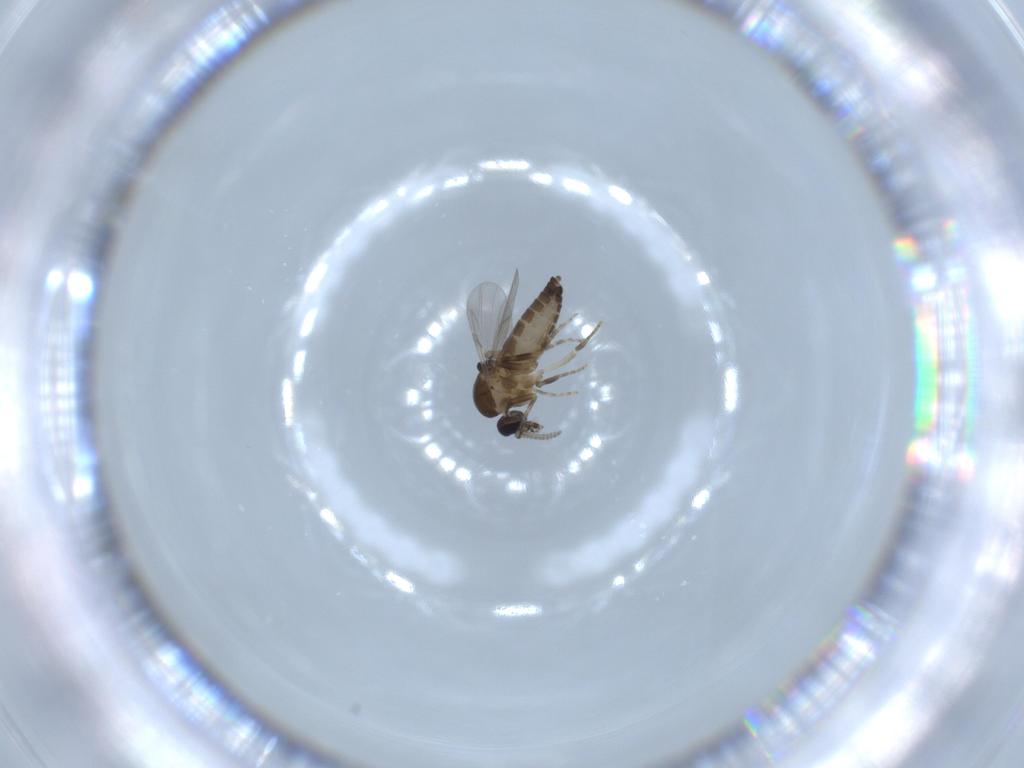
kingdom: Animalia
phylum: Arthropoda
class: Insecta
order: Diptera
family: Ceratopogonidae
